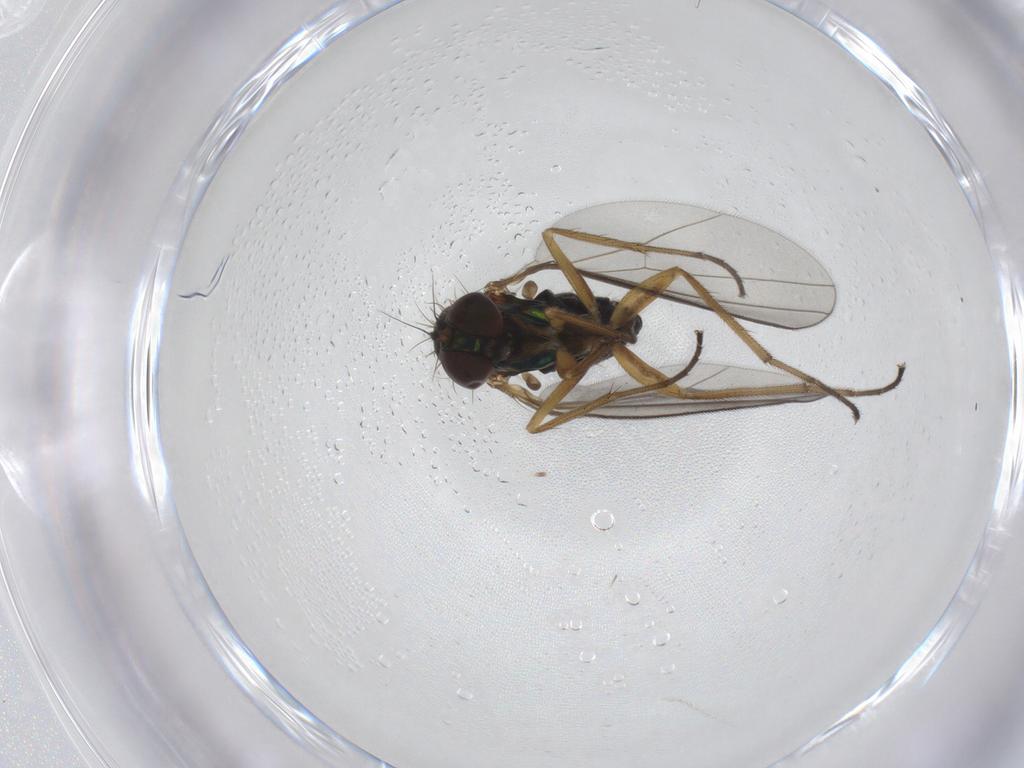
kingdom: Animalia
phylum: Arthropoda
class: Insecta
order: Diptera
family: Dolichopodidae
